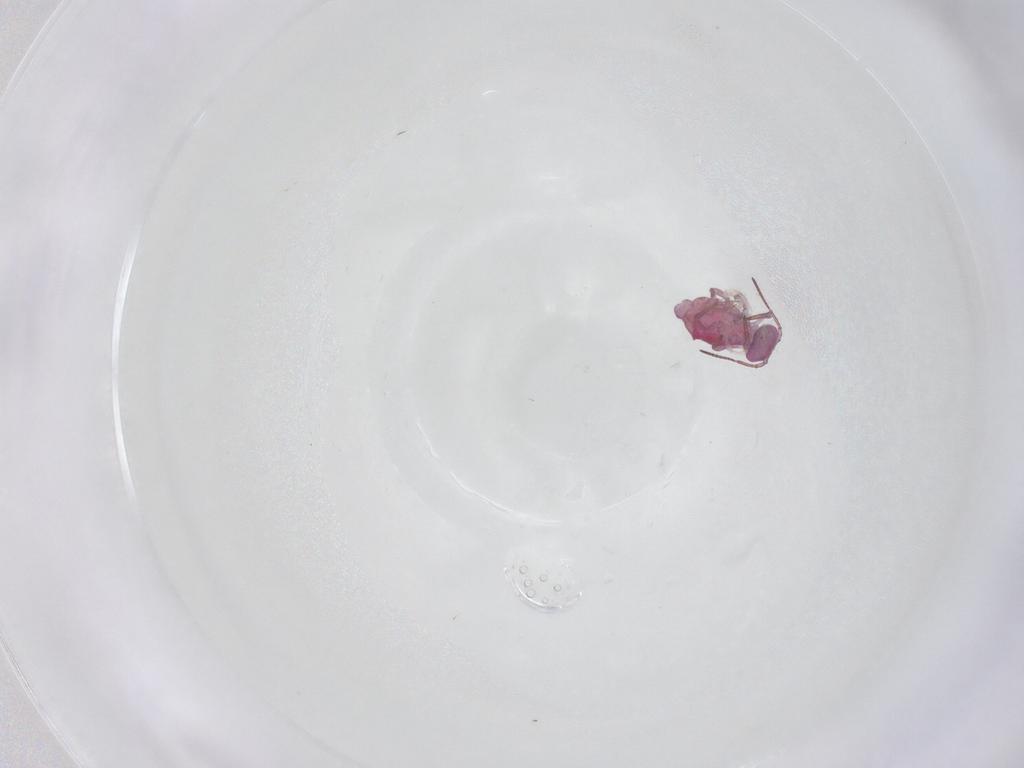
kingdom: Animalia
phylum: Arthropoda
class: Collembola
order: Symphypleona
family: Sminthuridae
